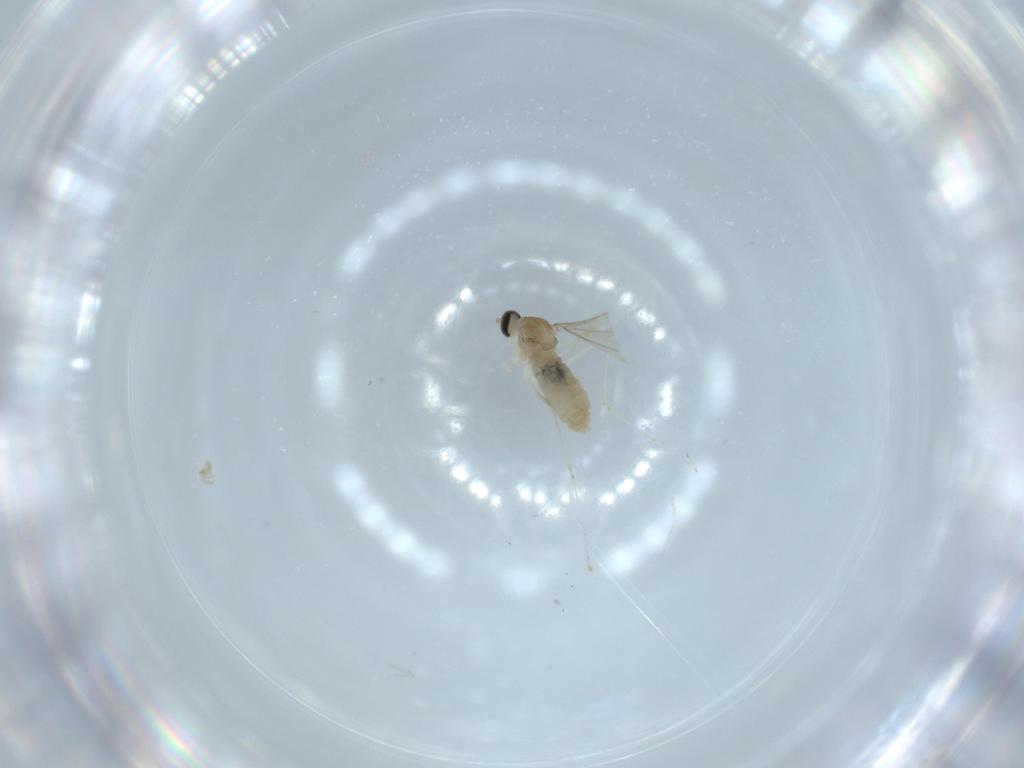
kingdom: Animalia
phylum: Arthropoda
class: Insecta
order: Diptera
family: Cecidomyiidae
